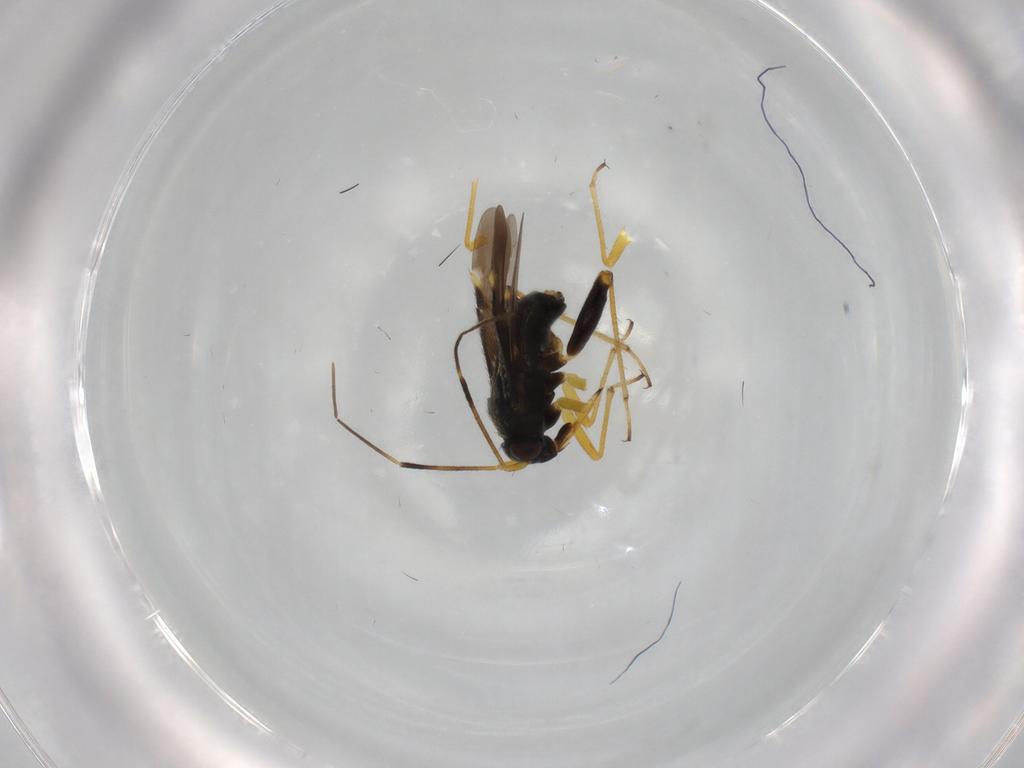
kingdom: Animalia
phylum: Arthropoda
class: Insecta
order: Hemiptera
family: Miridae
